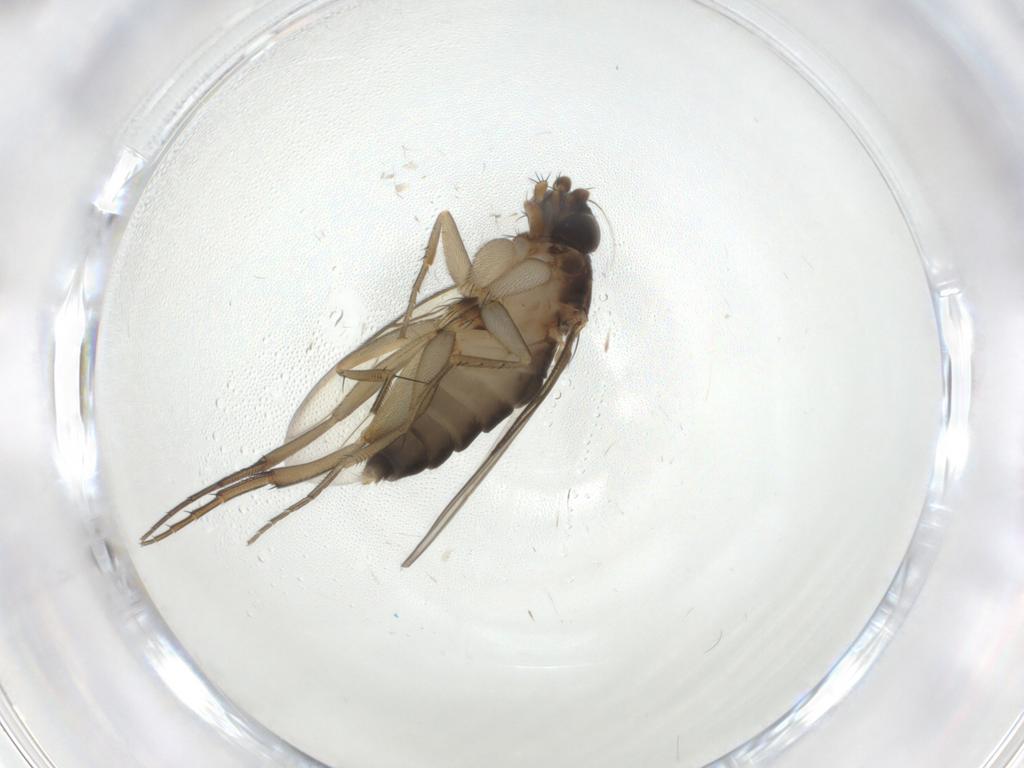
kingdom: Animalia
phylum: Arthropoda
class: Insecta
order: Diptera
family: Phoridae
